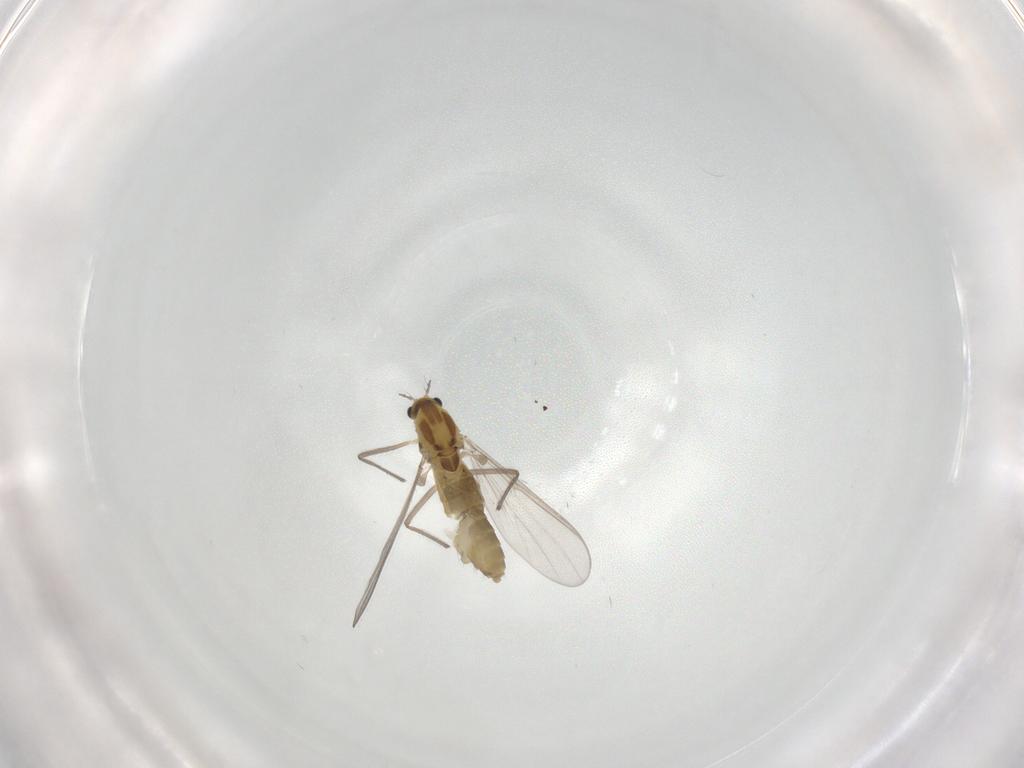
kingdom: Animalia
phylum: Arthropoda
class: Insecta
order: Diptera
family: Chironomidae
